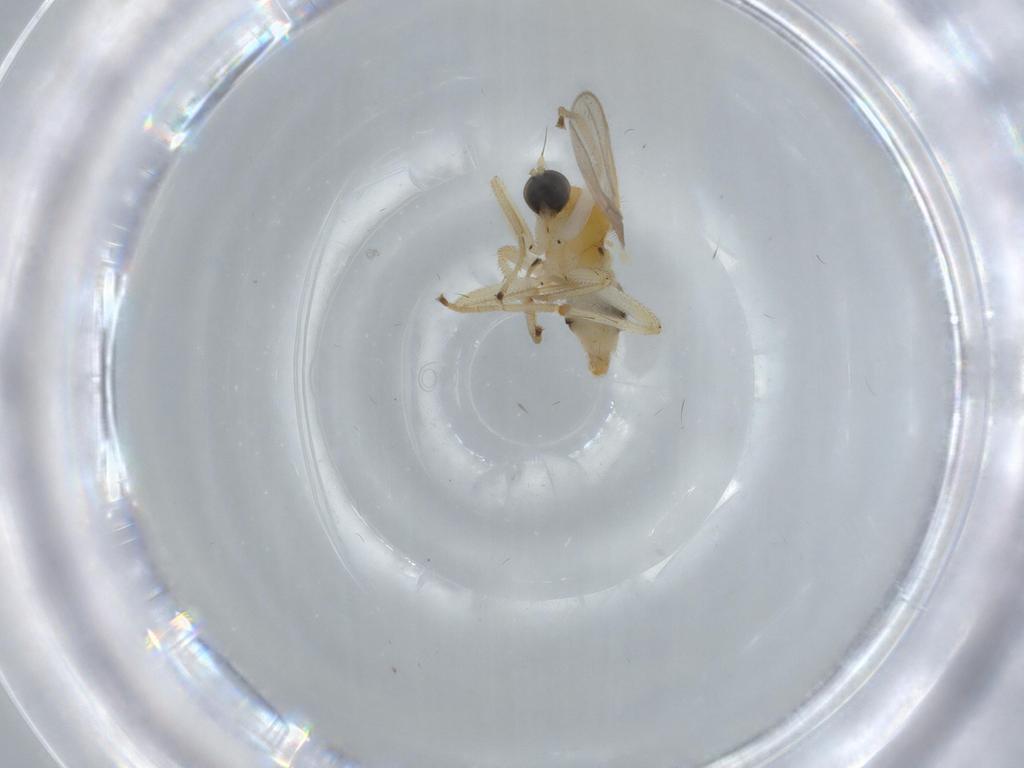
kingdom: Animalia
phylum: Arthropoda
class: Insecta
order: Diptera
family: Hybotidae
